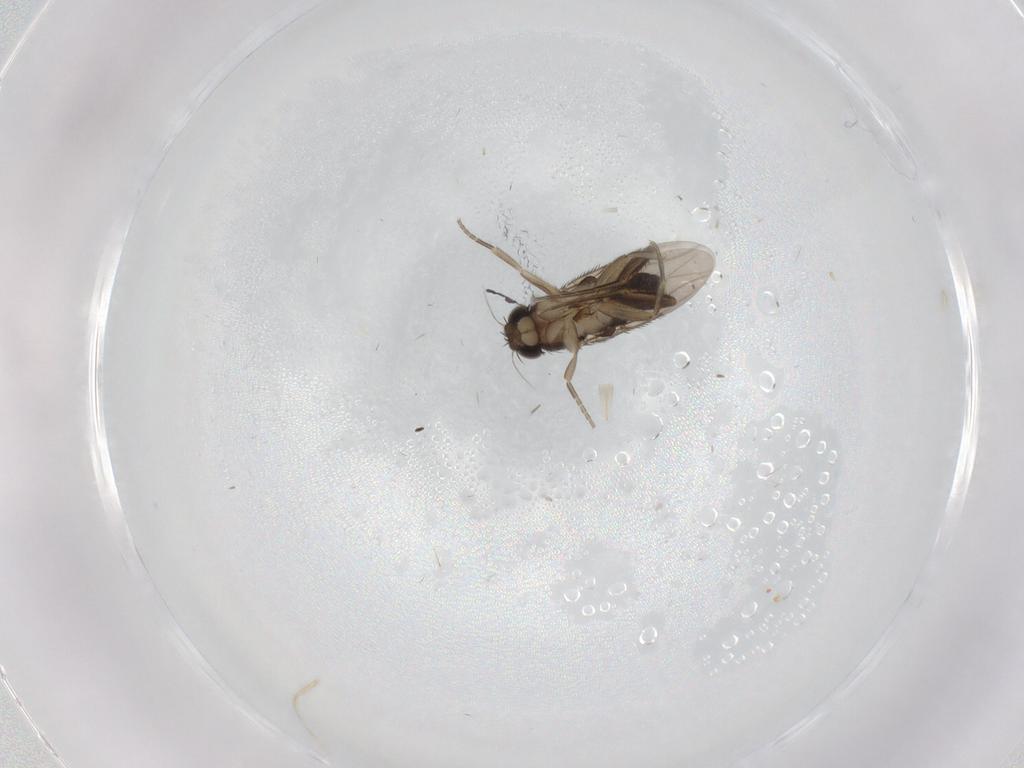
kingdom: Animalia
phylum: Arthropoda
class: Insecta
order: Diptera
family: Phoridae
